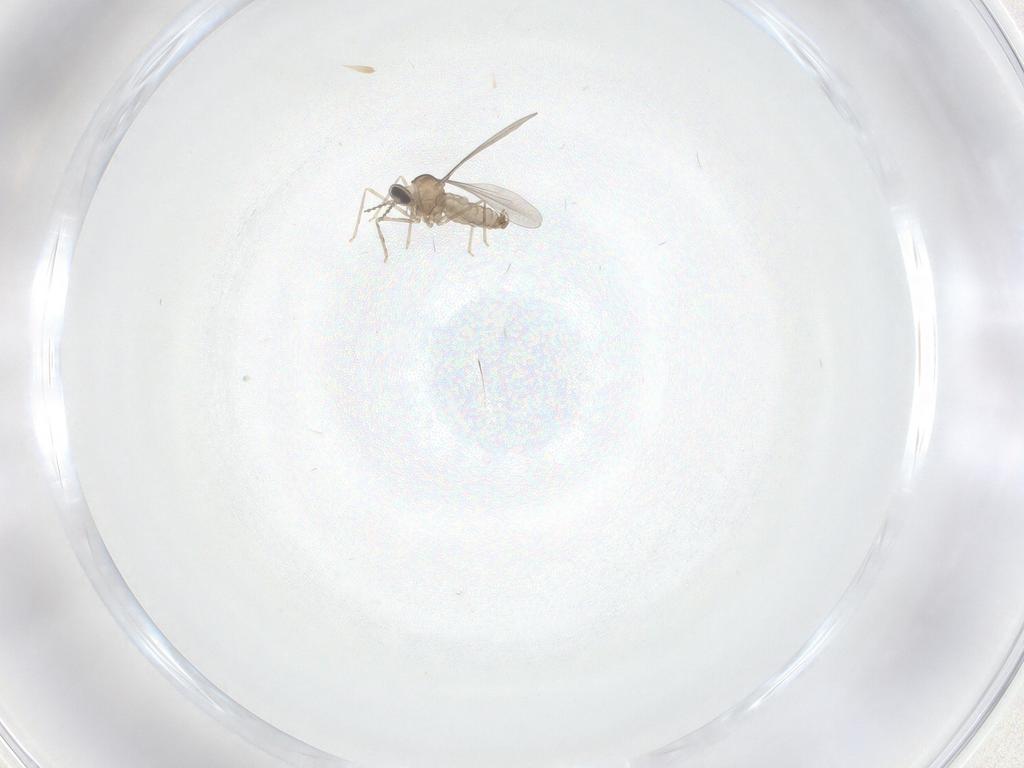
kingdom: Animalia
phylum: Arthropoda
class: Insecta
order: Diptera
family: Cecidomyiidae
